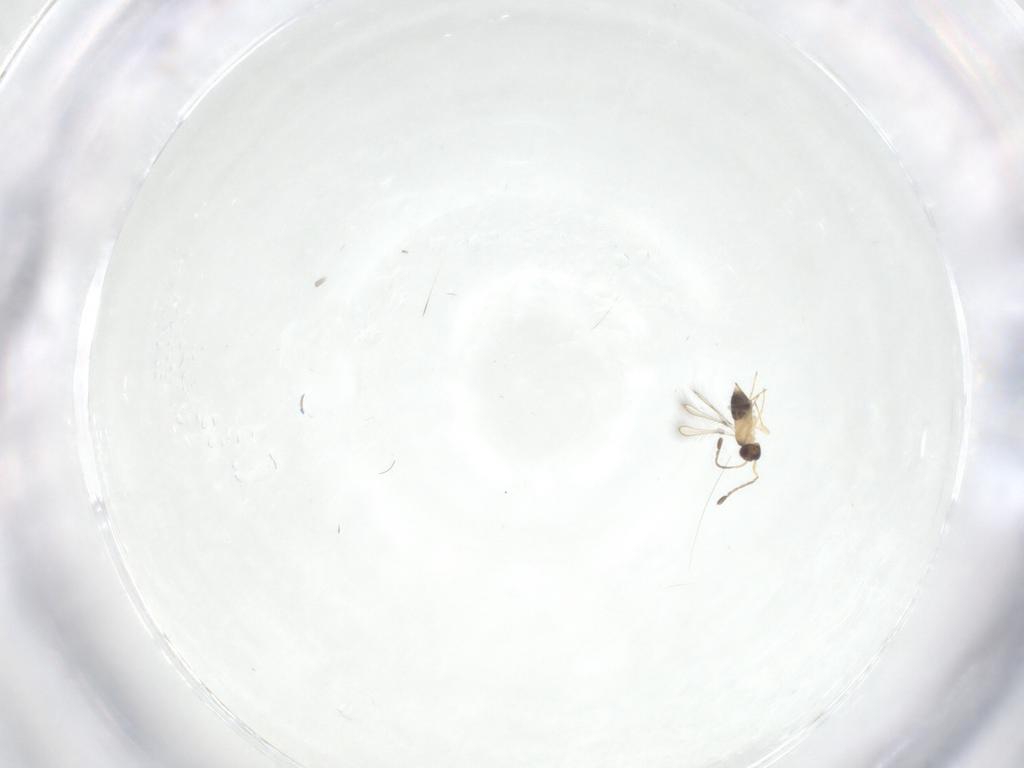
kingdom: Animalia
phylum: Arthropoda
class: Insecta
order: Hymenoptera
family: Mymaridae
